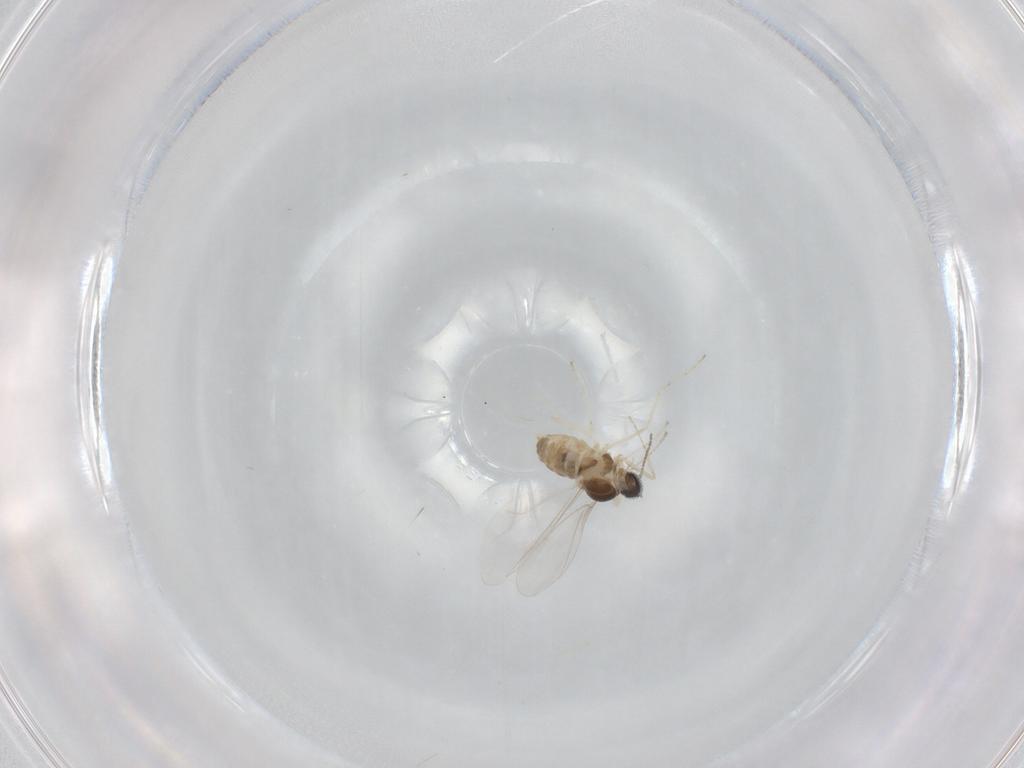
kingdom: Animalia
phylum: Arthropoda
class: Insecta
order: Diptera
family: Cecidomyiidae
